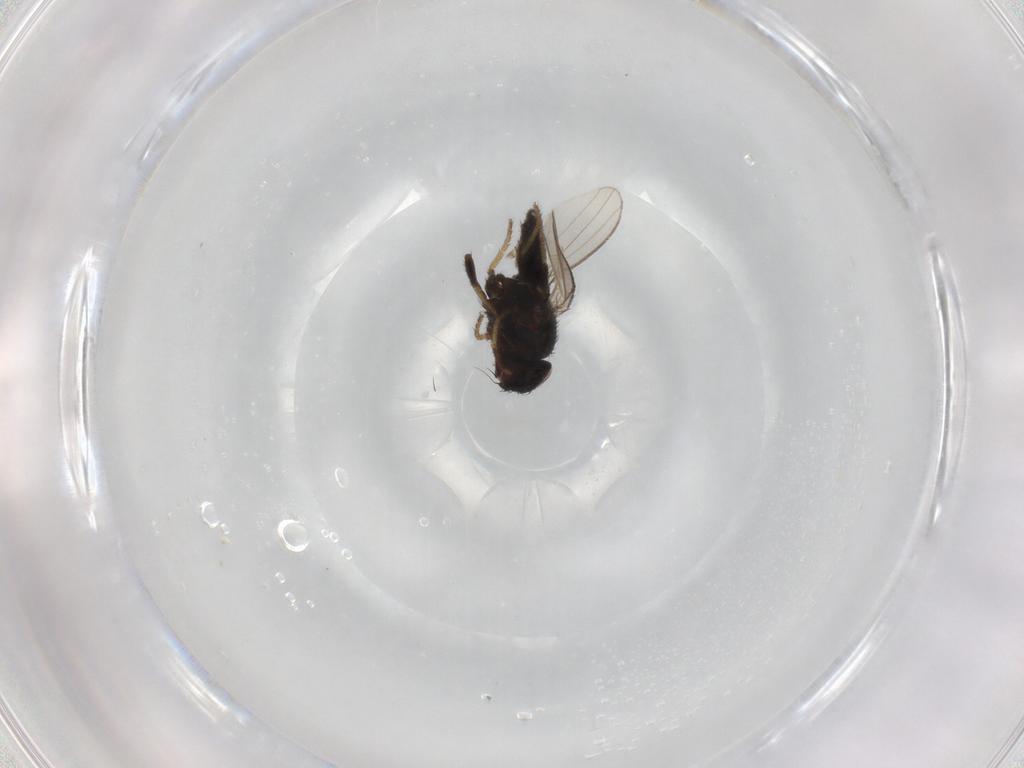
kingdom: Animalia
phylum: Arthropoda
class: Insecta
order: Diptera
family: Milichiidae
